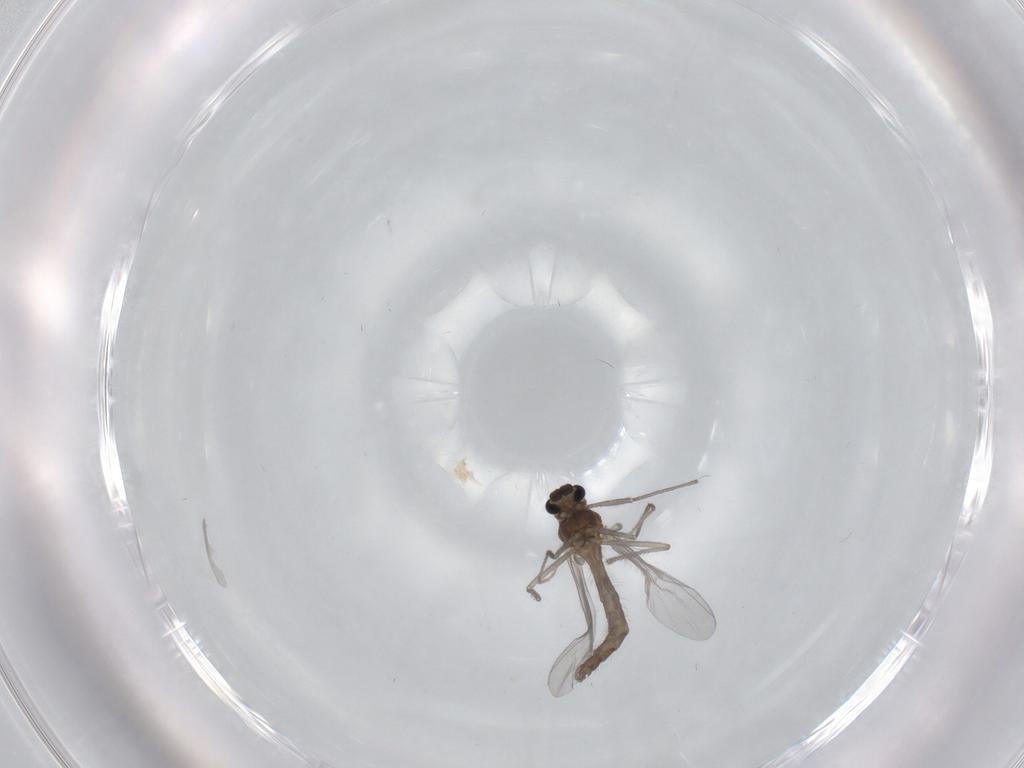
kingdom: Animalia
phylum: Arthropoda
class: Insecta
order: Diptera
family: Chironomidae
